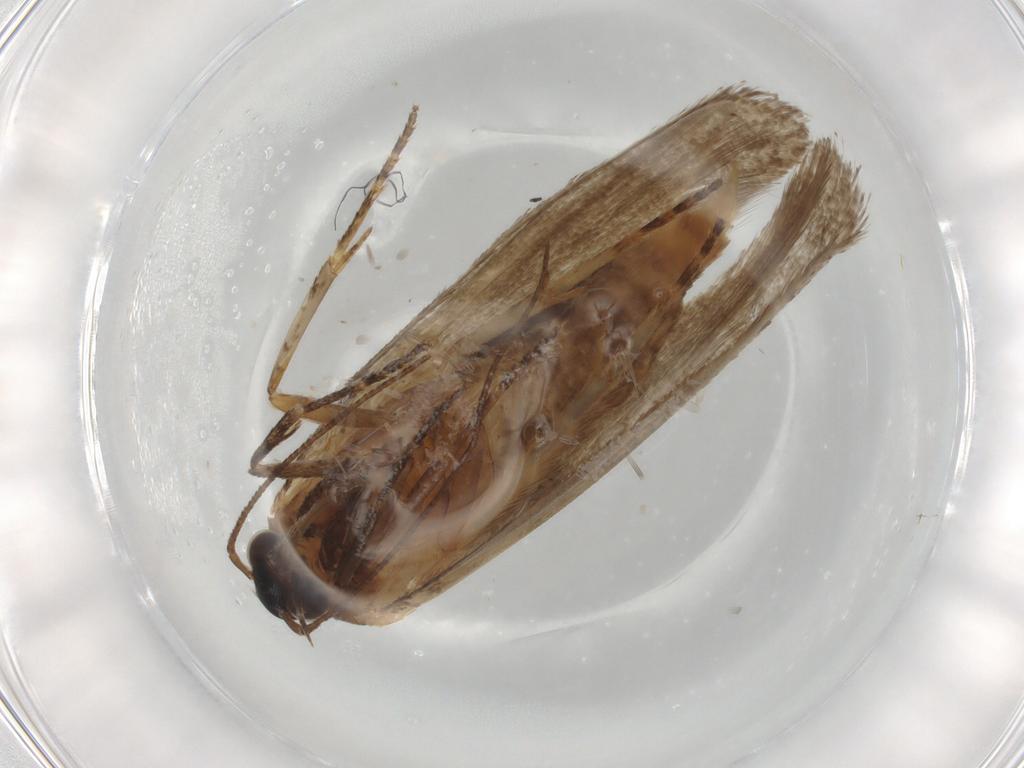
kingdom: Animalia
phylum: Arthropoda
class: Insecta
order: Lepidoptera
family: Oecophoridae
